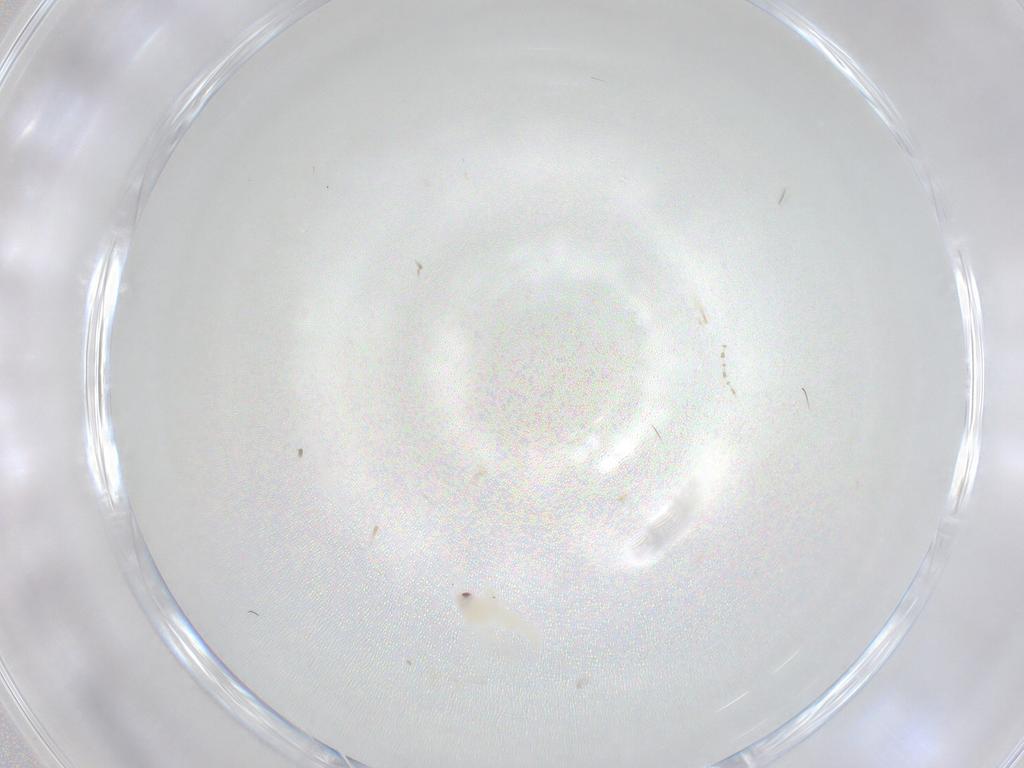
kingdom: Animalia
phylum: Arthropoda
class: Insecta
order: Hemiptera
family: Aleyrodidae
